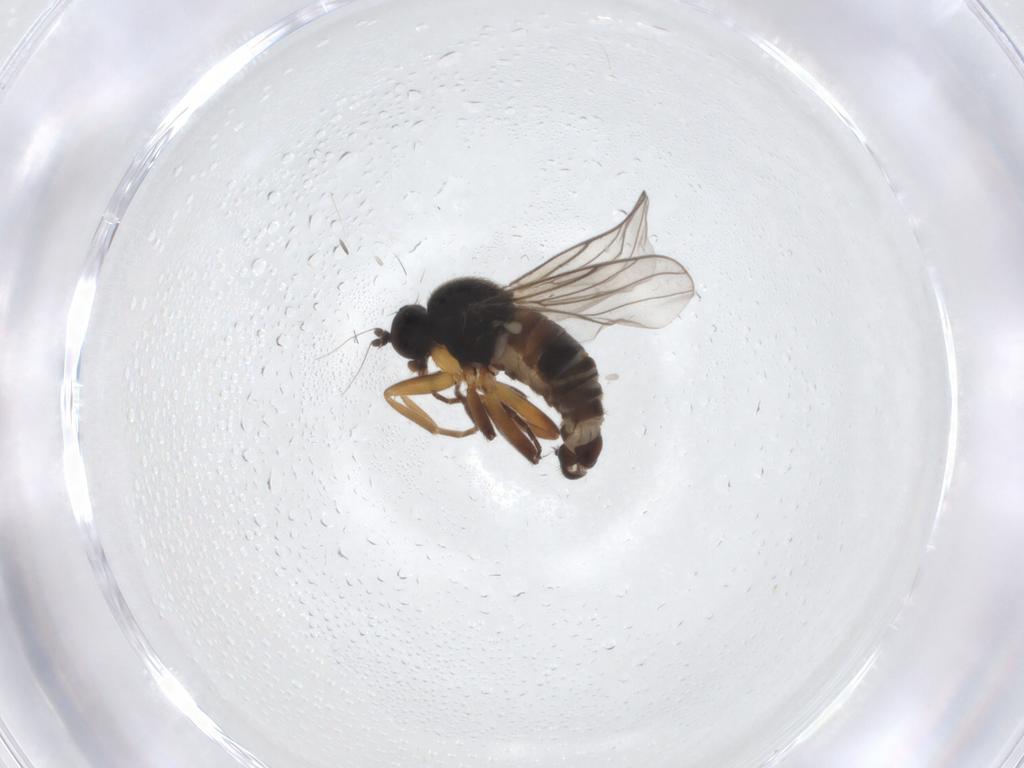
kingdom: Animalia
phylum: Arthropoda
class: Insecta
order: Diptera
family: Hybotidae
